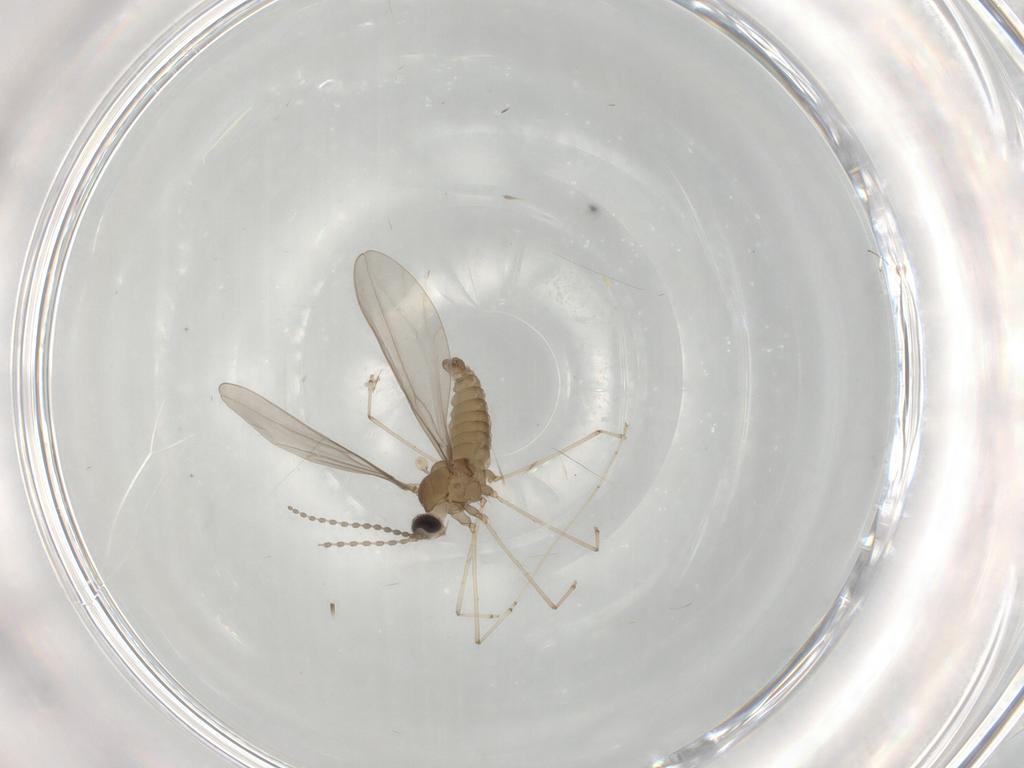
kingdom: Animalia
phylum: Arthropoda
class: Insecta
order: Diptera
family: Cecidomyiidae
